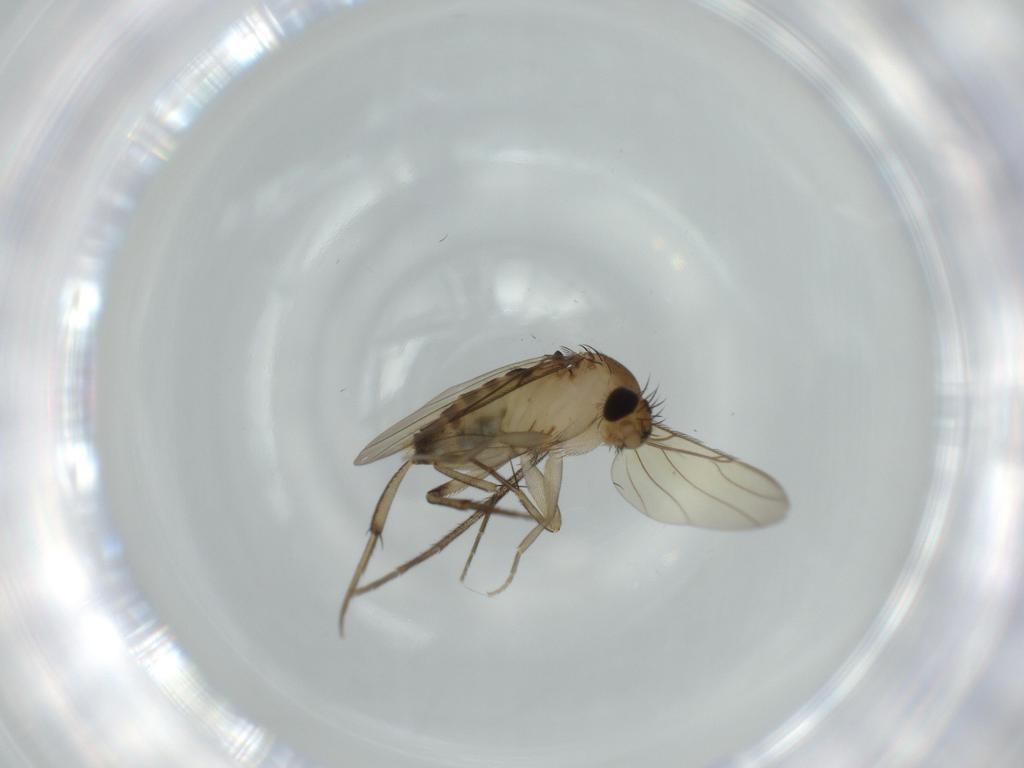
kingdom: Animalia
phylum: Arthropoda
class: Insecta
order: Diptera
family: Phoridae
